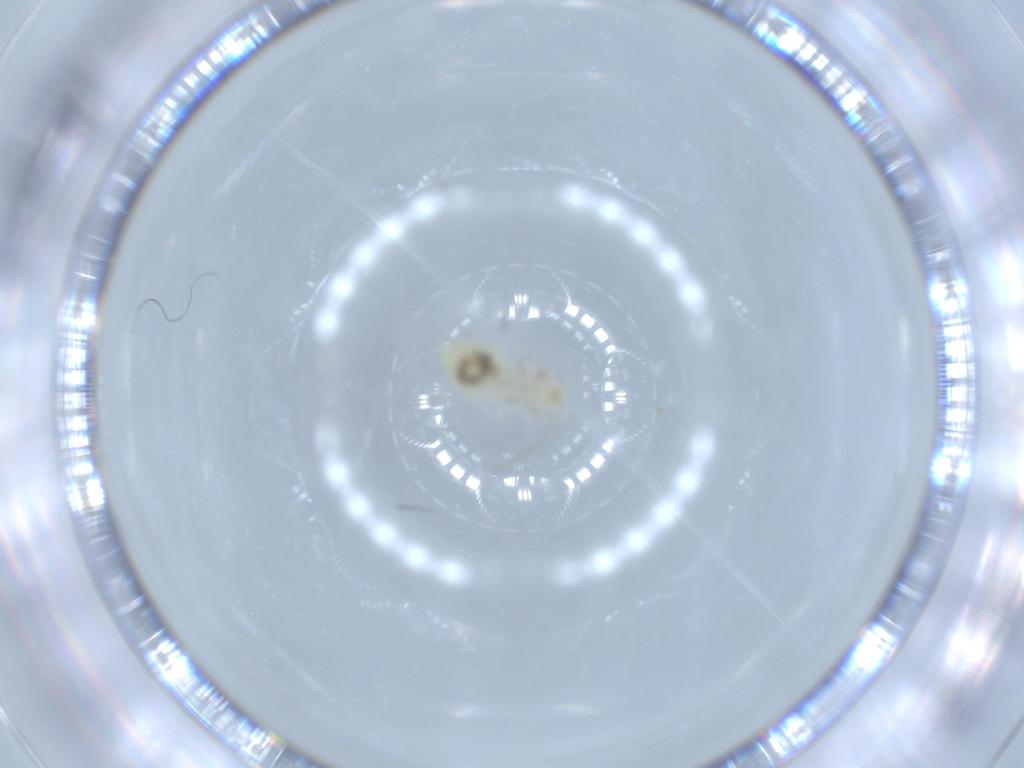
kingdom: Animalia
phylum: Arthropoda
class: Insecta
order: Psocodea
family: Caeciliusidae
